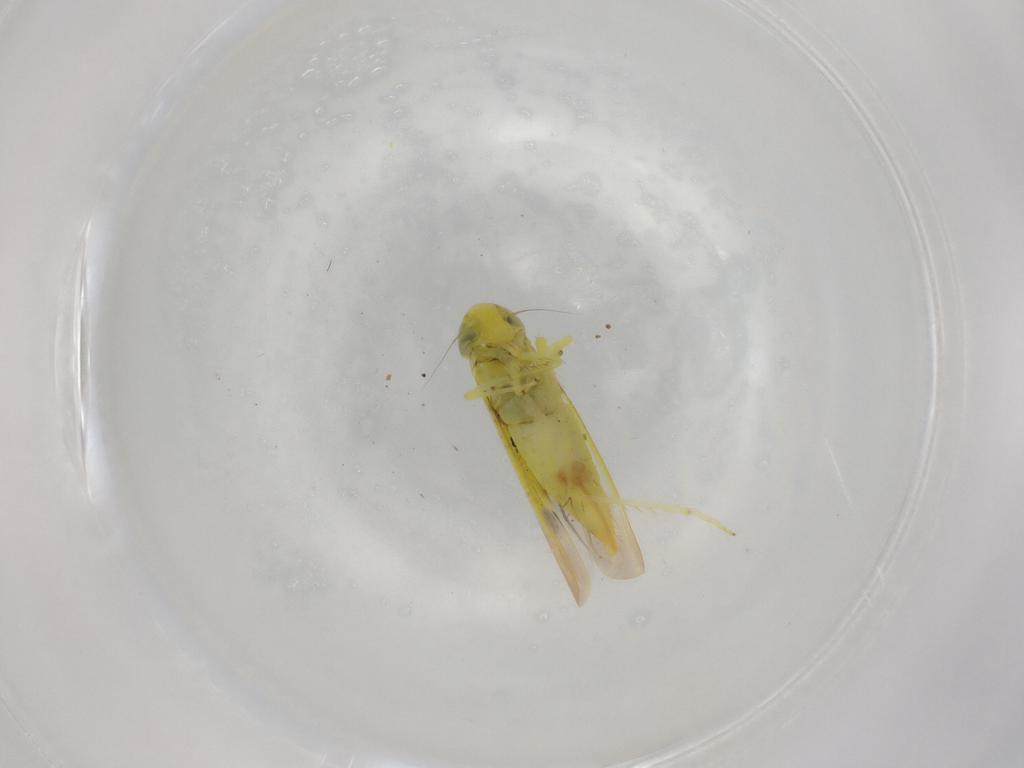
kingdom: Animalia
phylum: Arthropoda
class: Insecta
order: Hemiptera
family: Cicadellidae
